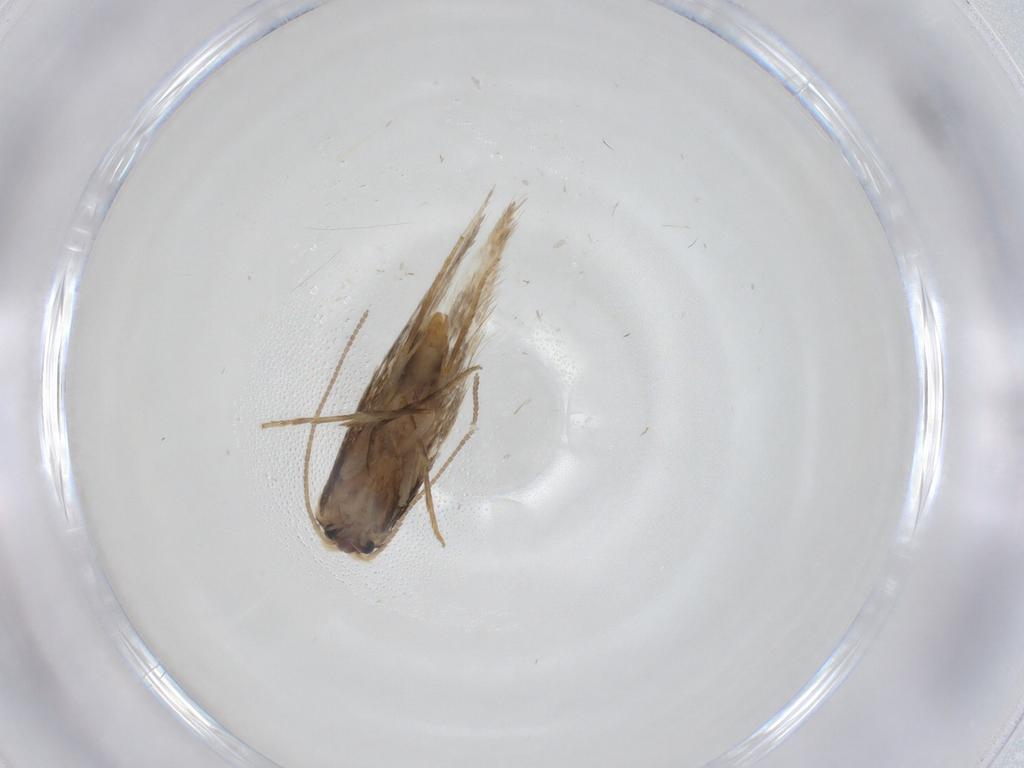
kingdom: Animalia
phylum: Arthropoda
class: Insecta
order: Lepidoptera
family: Nepticulidae
